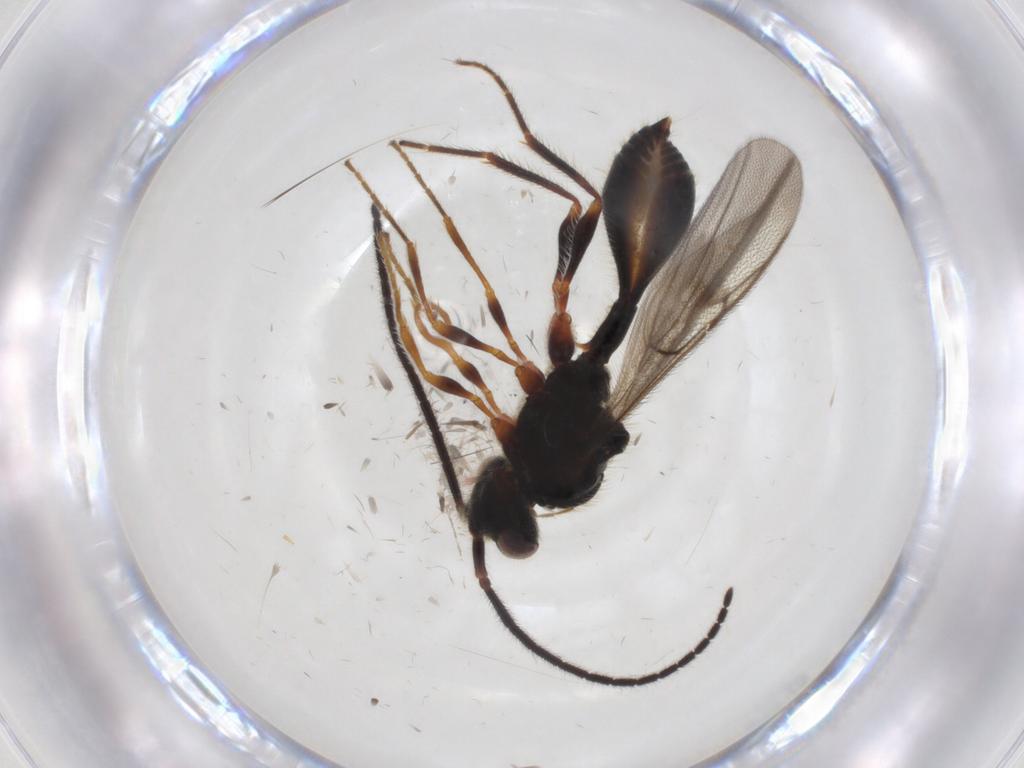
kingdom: Animalia
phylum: Arthropoda
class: Insecta
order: Hymenoptera
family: Diapriidae
